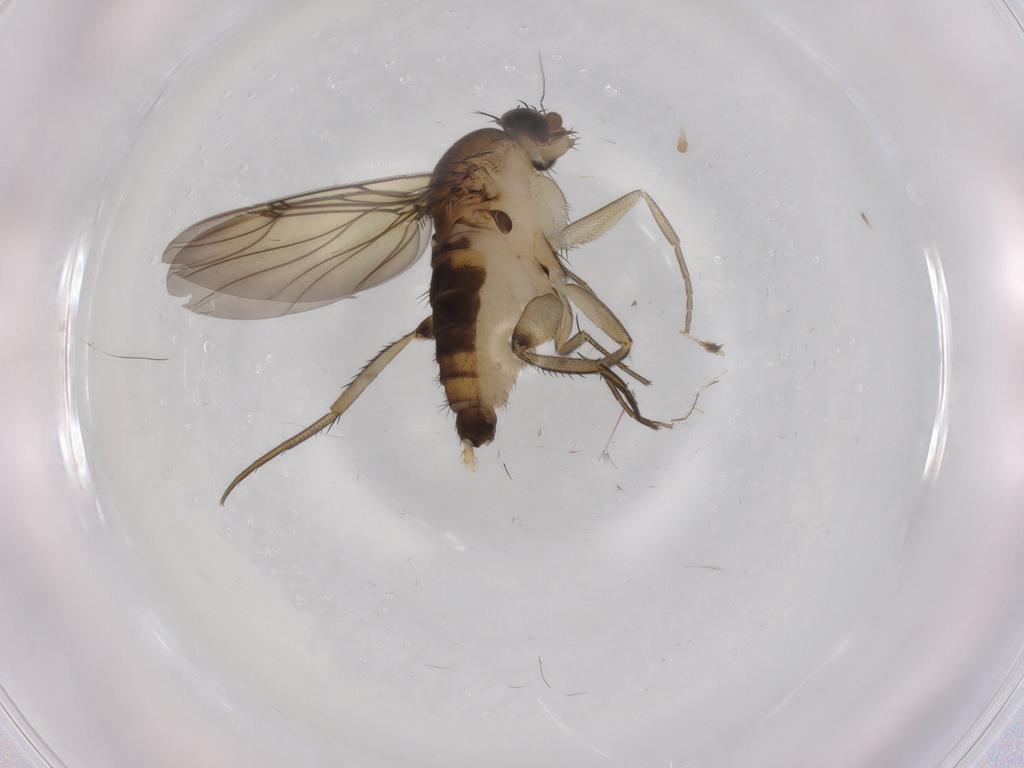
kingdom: Animalia
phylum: Arthropoda
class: Insecta
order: Diptera
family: Phoridae
